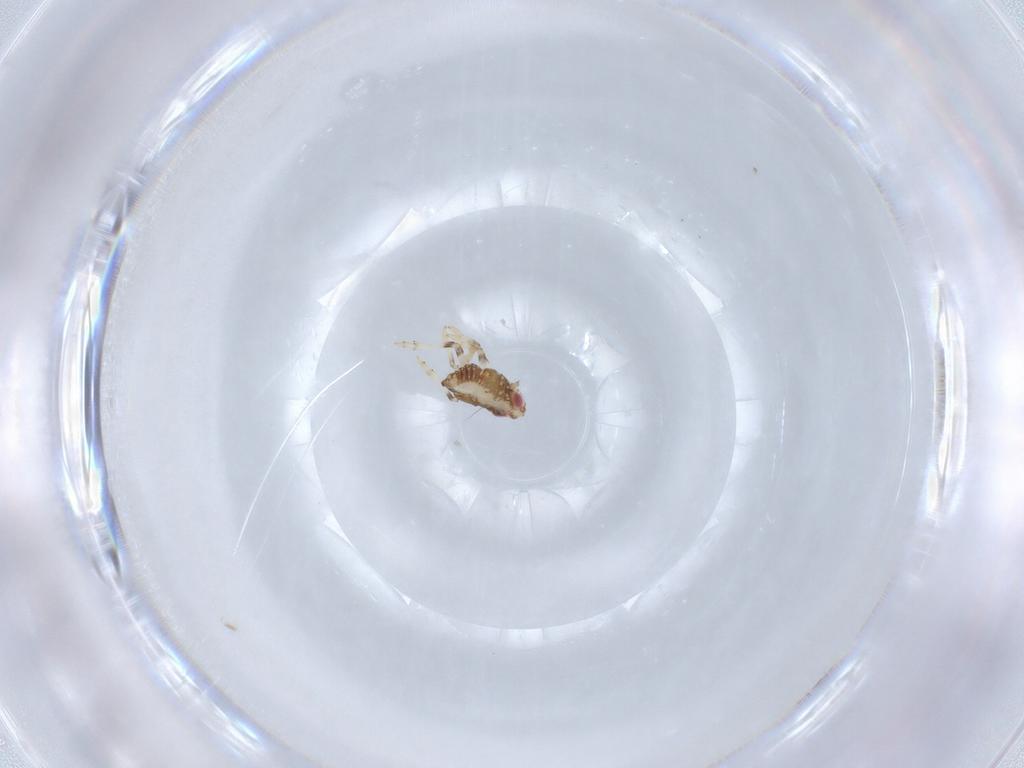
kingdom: Animalia
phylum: Arthropoda
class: Insecta
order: Hemiptera
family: Issidae
